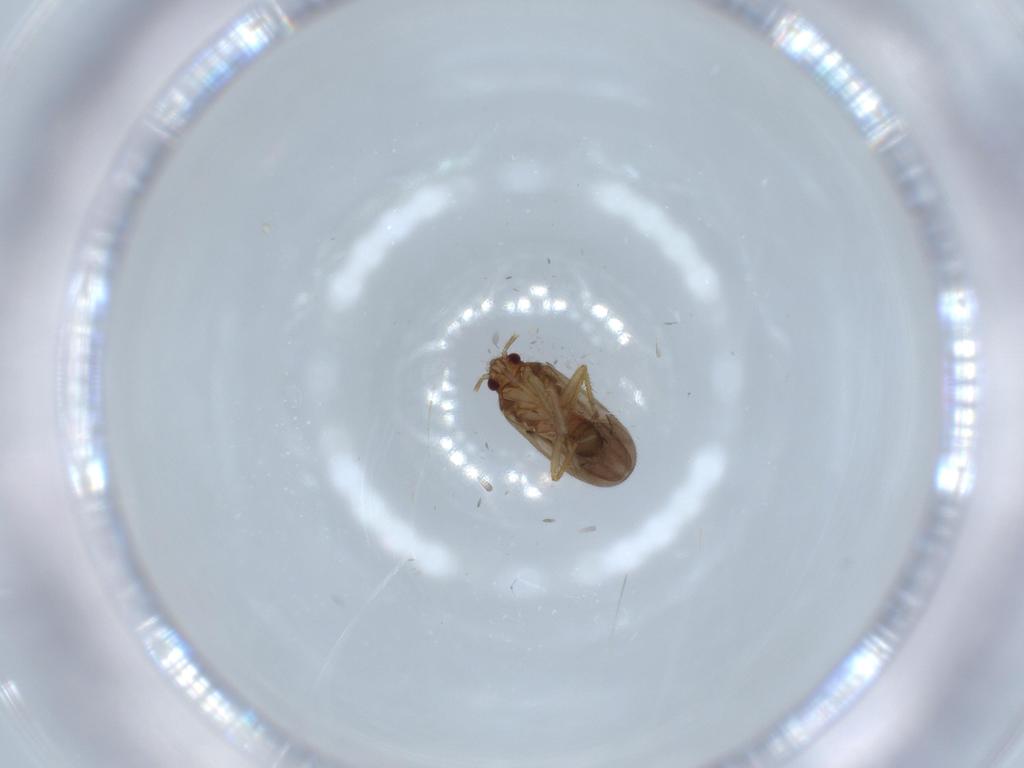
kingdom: Animalia
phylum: Arthropoda
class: Insecta
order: Hemiptera
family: Ceratocombidae
